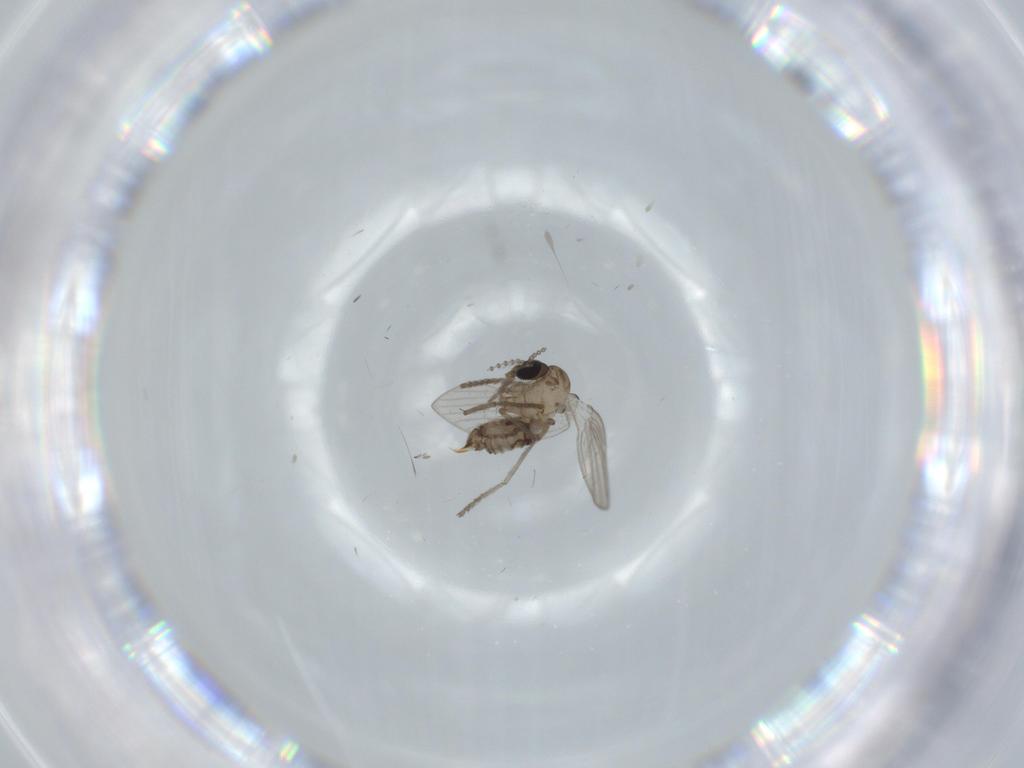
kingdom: Animalia
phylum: Arthropoda
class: Insecta
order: Diptera
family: Psychodidae
